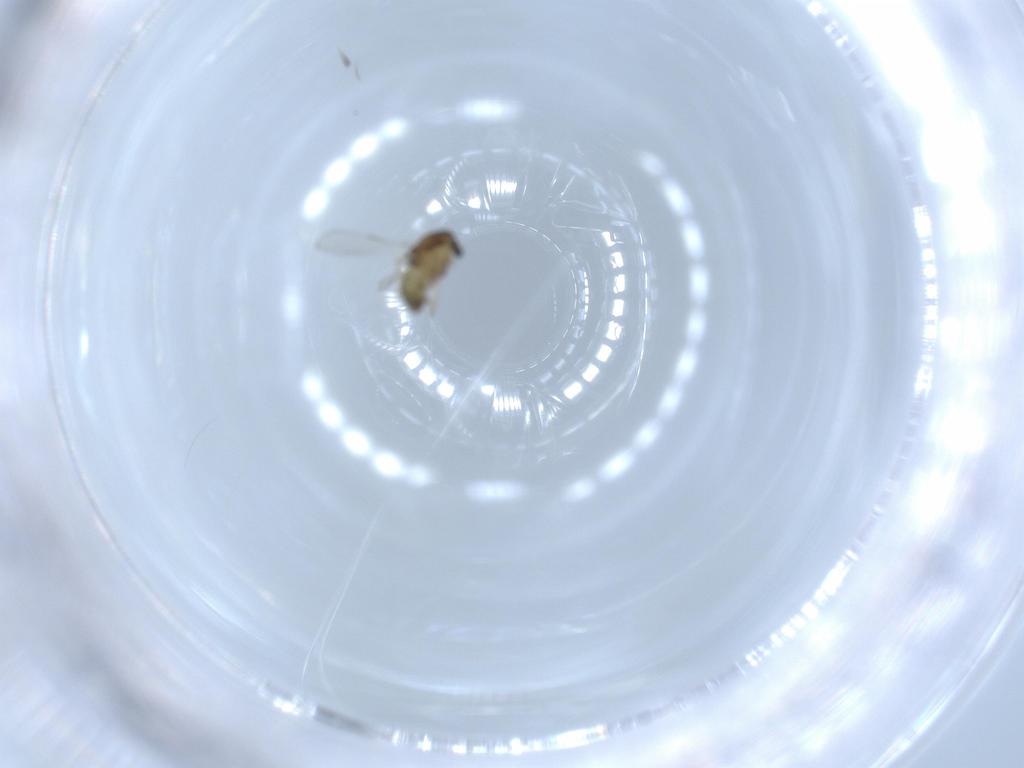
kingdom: Animalia
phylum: Arthropoda
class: Insecta
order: Diptera
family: Chironomidae
